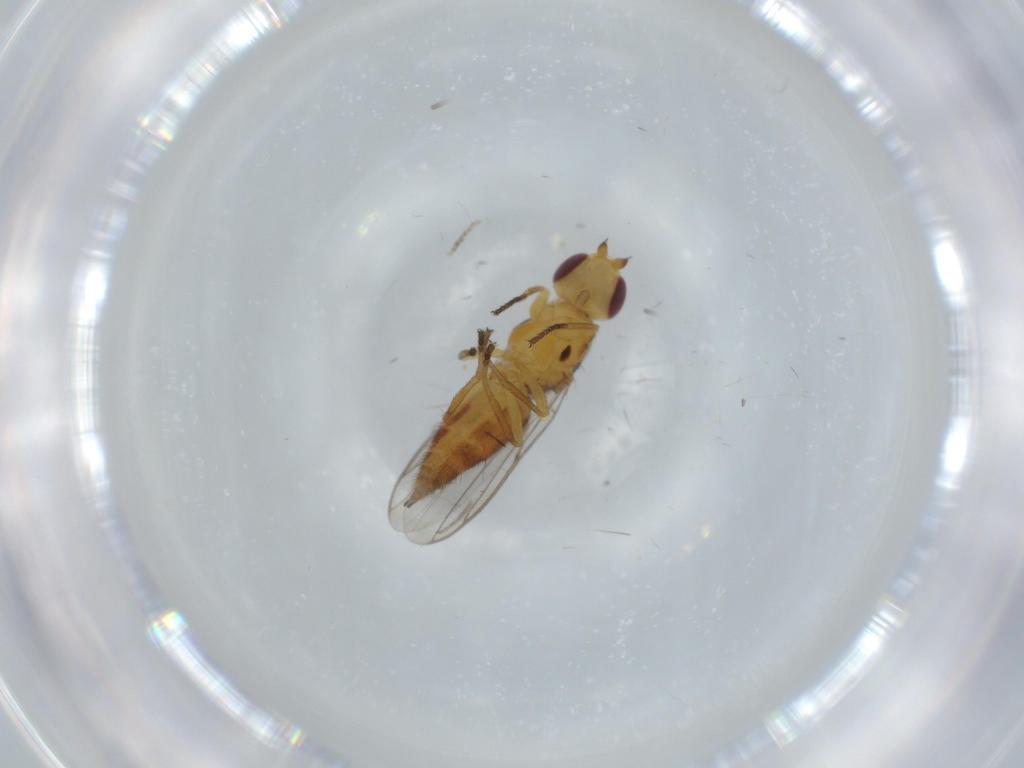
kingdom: Animalia
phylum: Arthropoda
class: Insecta
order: Diptera
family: Chloropidae
